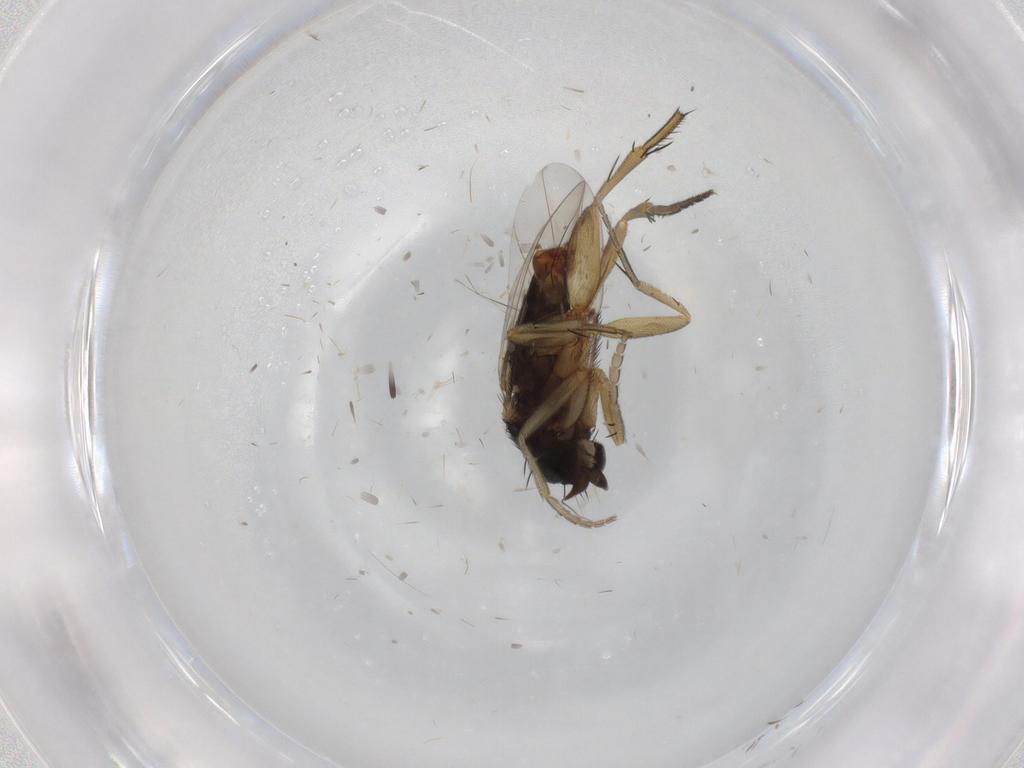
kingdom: Animalia
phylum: Arthropoda
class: Insecta
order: Diptera
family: Phoridae
